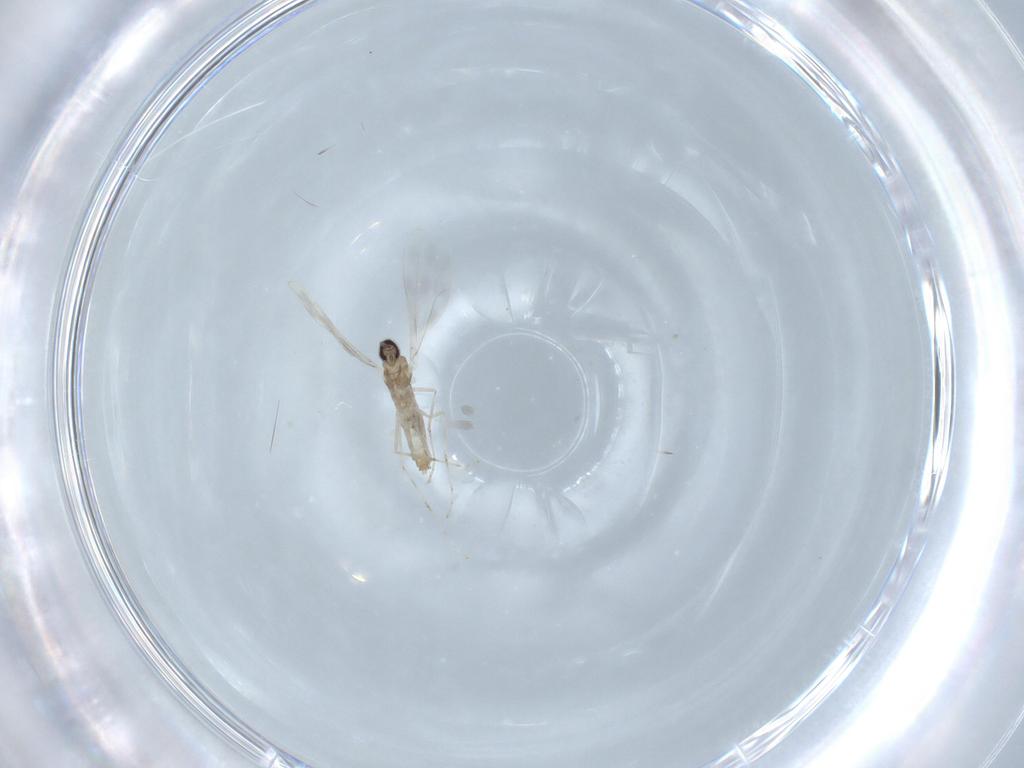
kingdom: Animalia
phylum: Arthropoda
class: Insecta
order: Diptera
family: Cecidomyiidae
